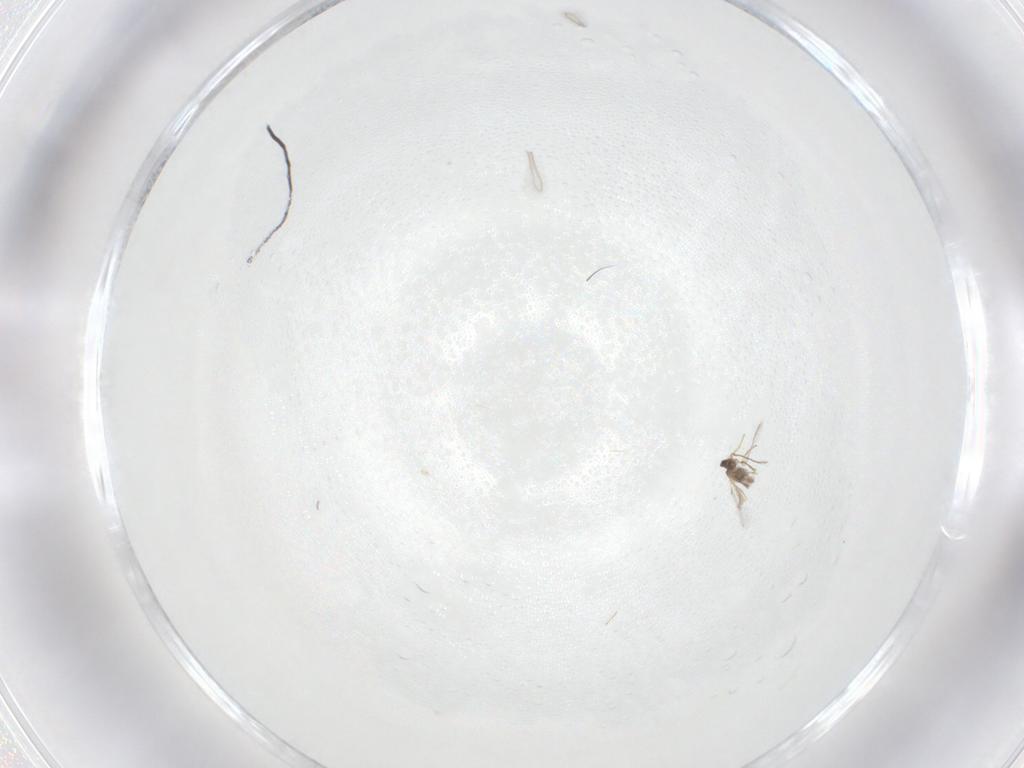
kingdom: Animalia
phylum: Arthropoda
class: Insecta
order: Hymenoptera
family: Mymaridae
